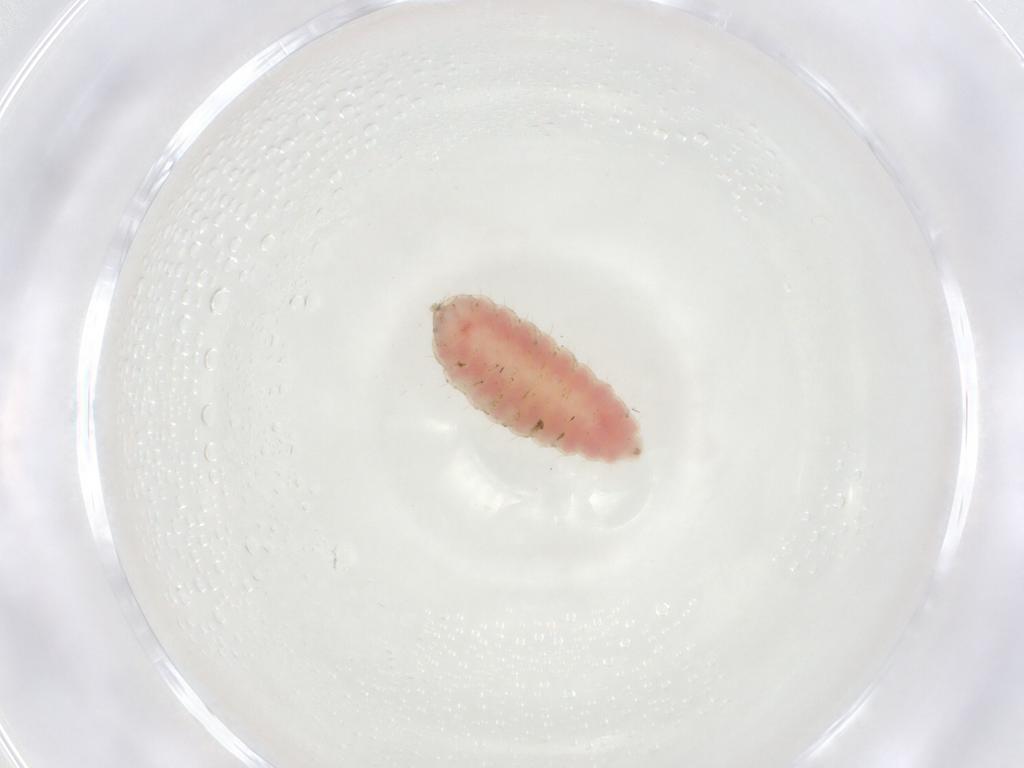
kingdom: Animalia
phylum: Arthropoda
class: Insecta
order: Diptera
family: Cecidomyiidae
